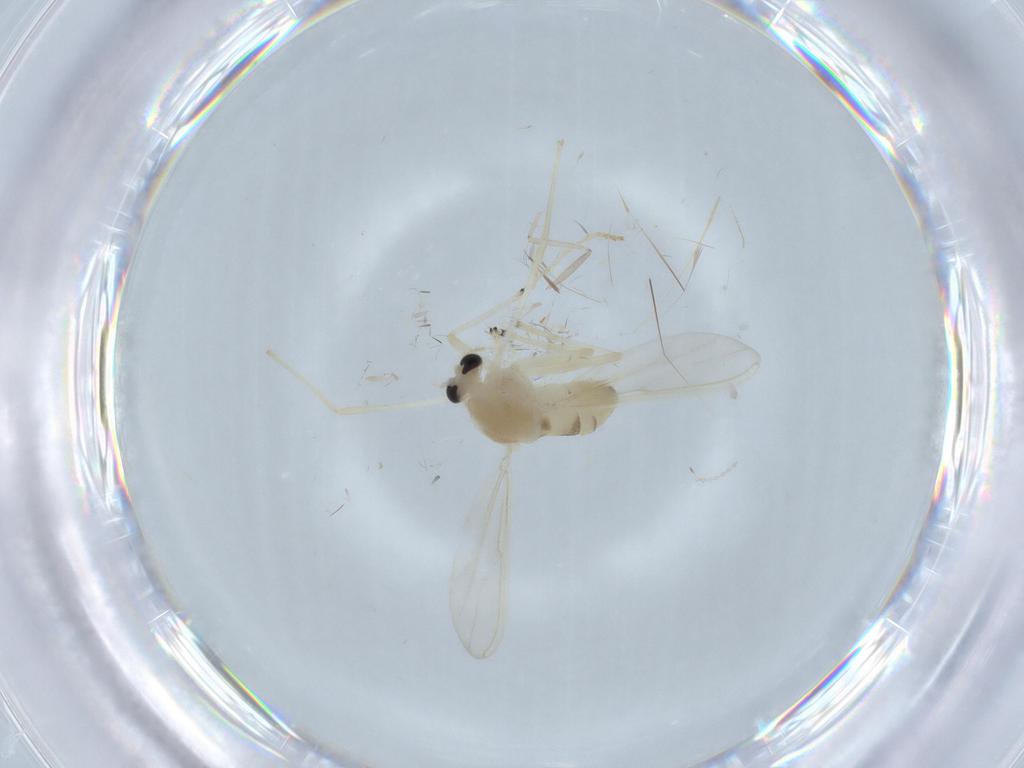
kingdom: Animalia
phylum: Arthropoda
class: Insecta
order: Diptera
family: Chironomidae
